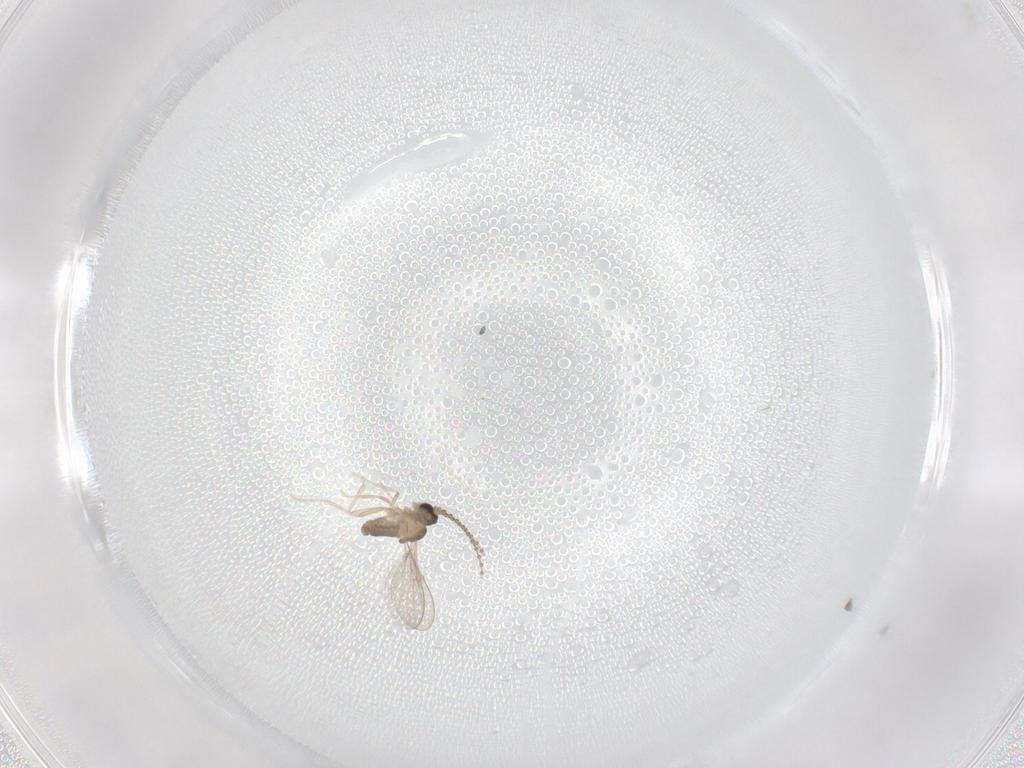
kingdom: Animalia
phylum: Arthropoda
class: Insecta
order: Diptera
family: Cecidomyiidae
